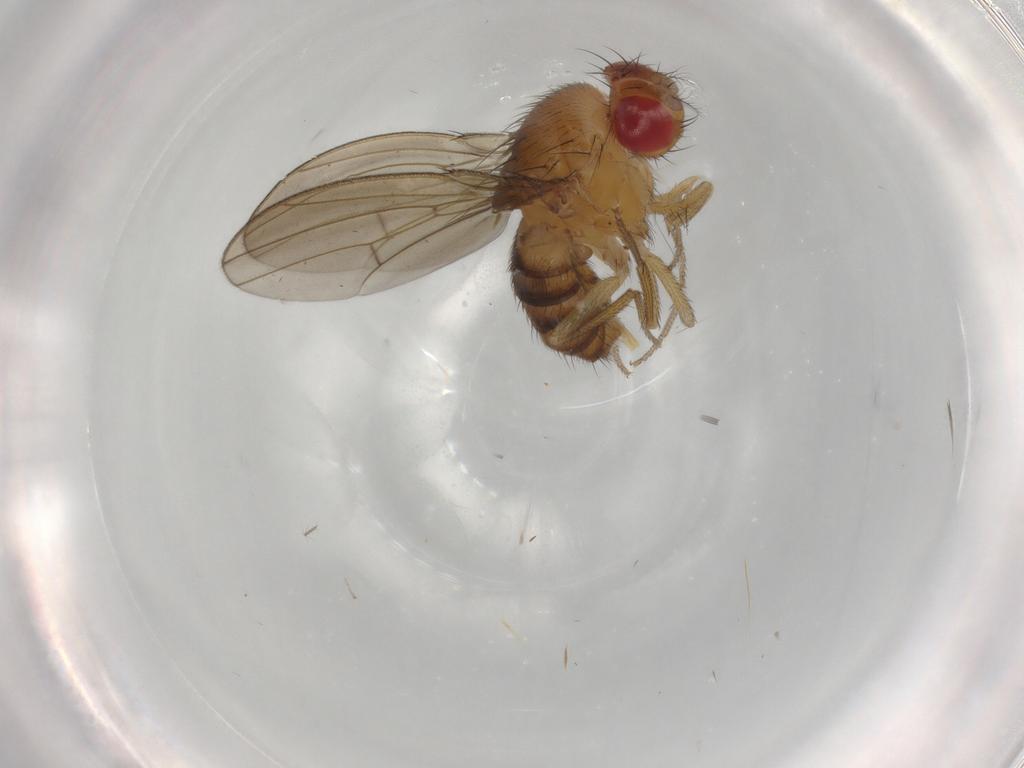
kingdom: Animalia
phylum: Arthropoda
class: Insecta
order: Diptera
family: Drosophilidae
